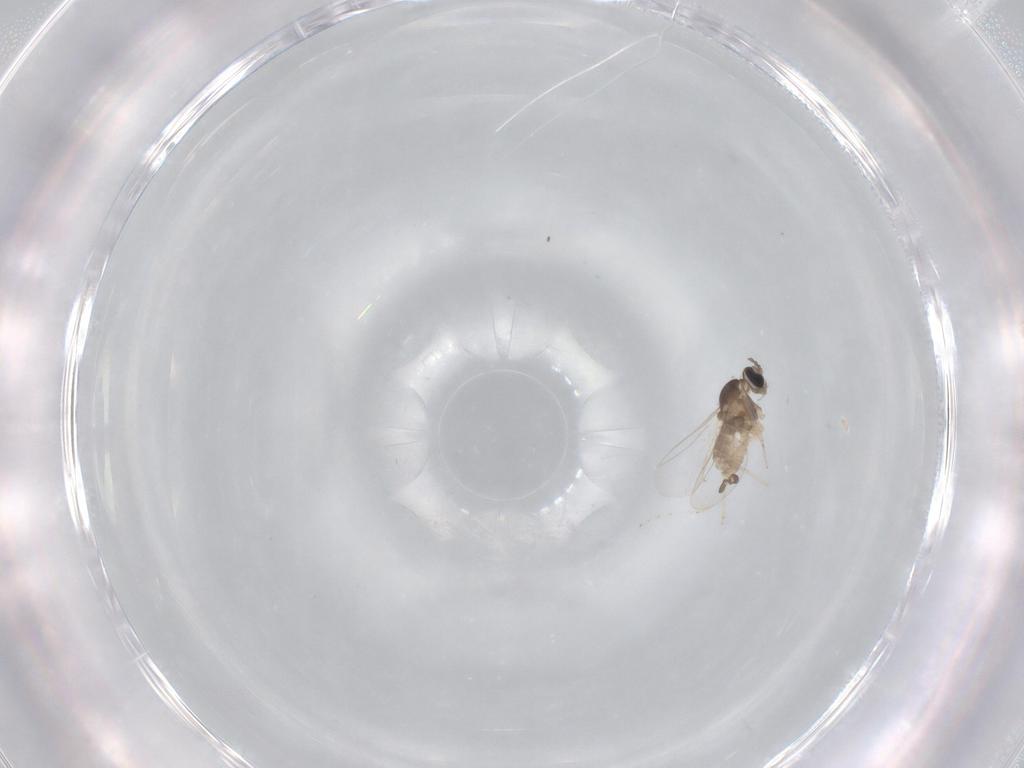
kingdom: Animalia
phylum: Arthropoda
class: Insecta
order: Diptera
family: Cecidomyiidae
